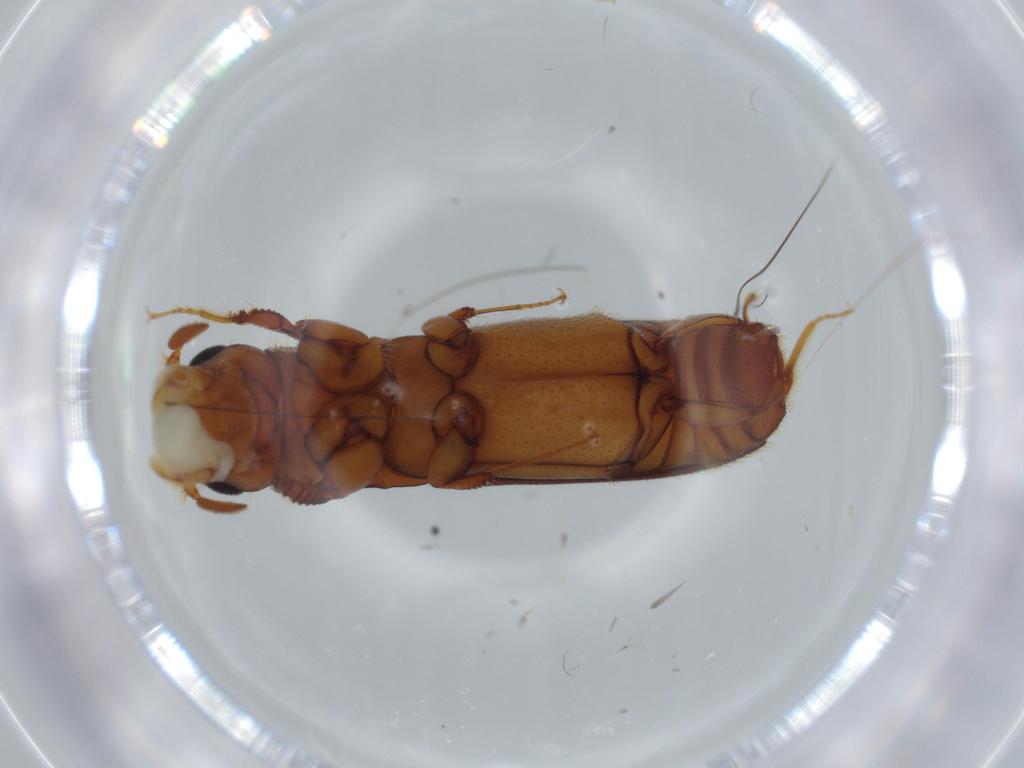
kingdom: Animalia
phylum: Arthropoda
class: Insecta
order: Coleoptera
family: Curculionidae
